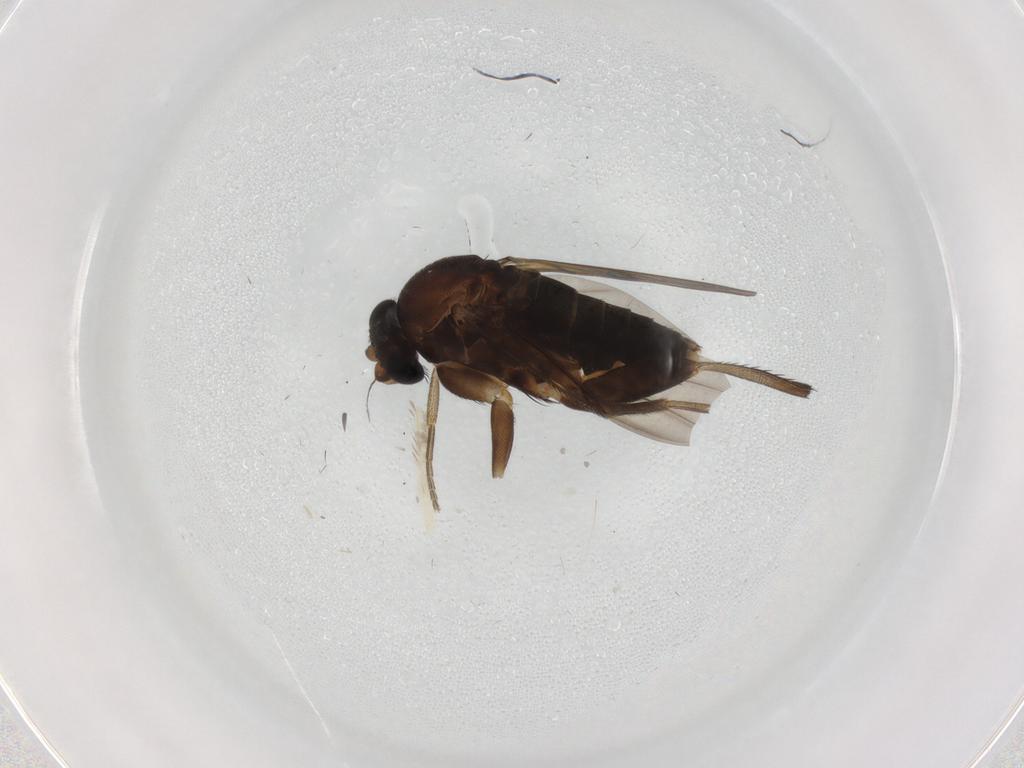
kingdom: Animalia
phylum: Arthropoda
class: Insecta
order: Diptera
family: Phoridae
